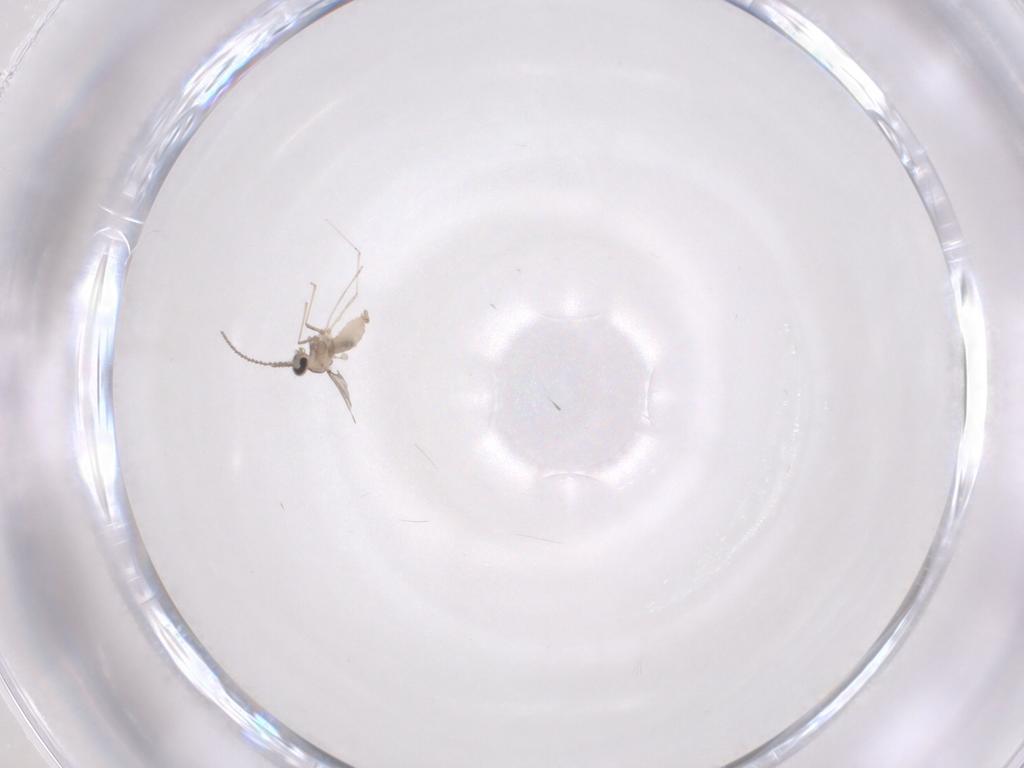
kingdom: Animalia
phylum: Arthropoda
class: Insecta
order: Diptera
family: Cecidomyiidae
